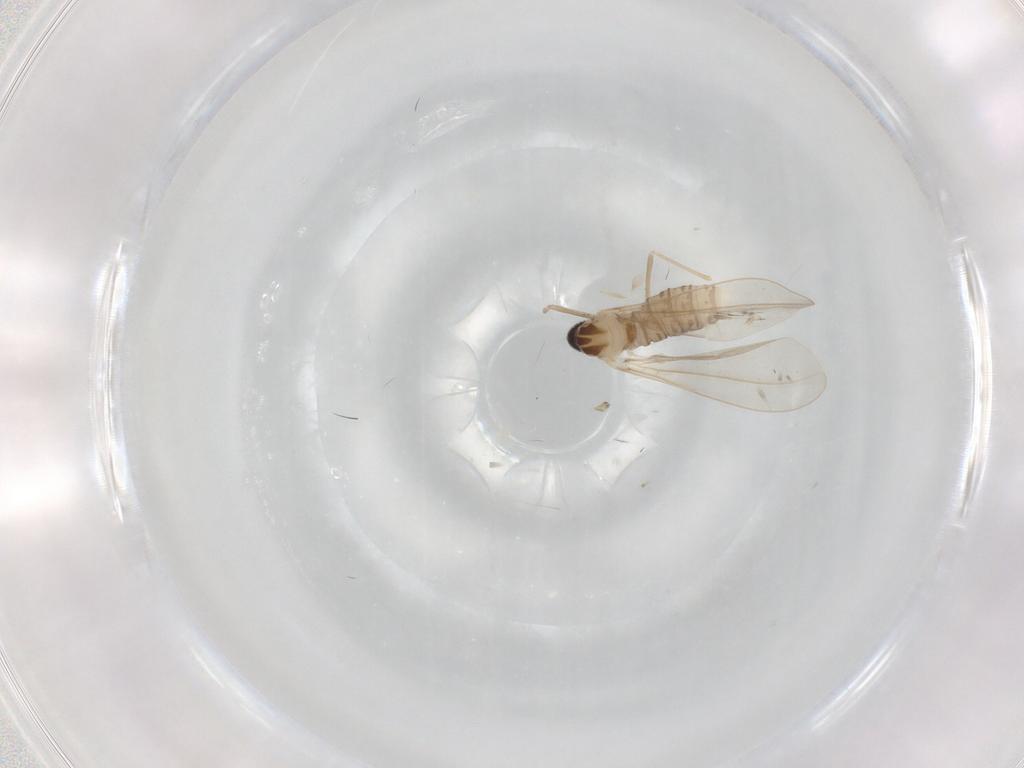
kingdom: Animalia
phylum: Arthropoda
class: Insecta
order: Diptera
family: Cecidomyiidae
